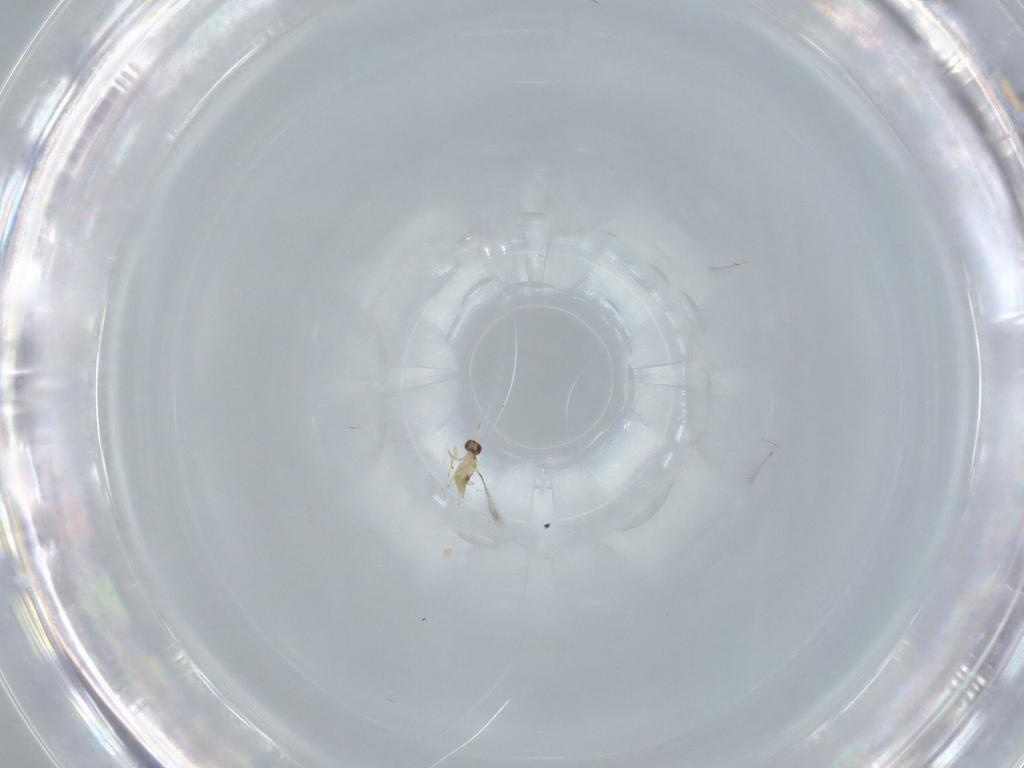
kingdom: Animalia
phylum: Arthropoda
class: Insecta
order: Hymenoptera
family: Mymaridae
